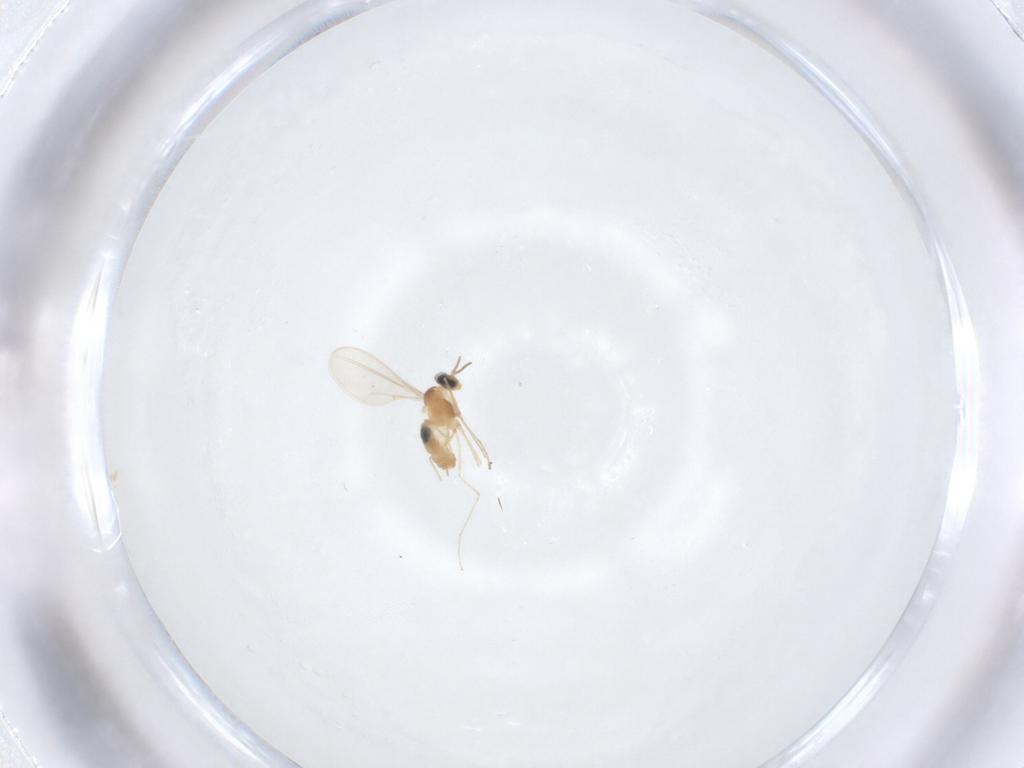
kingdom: Animalia
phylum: Arthropoda
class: Insecta
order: Diptera
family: Cecidomyiidae
